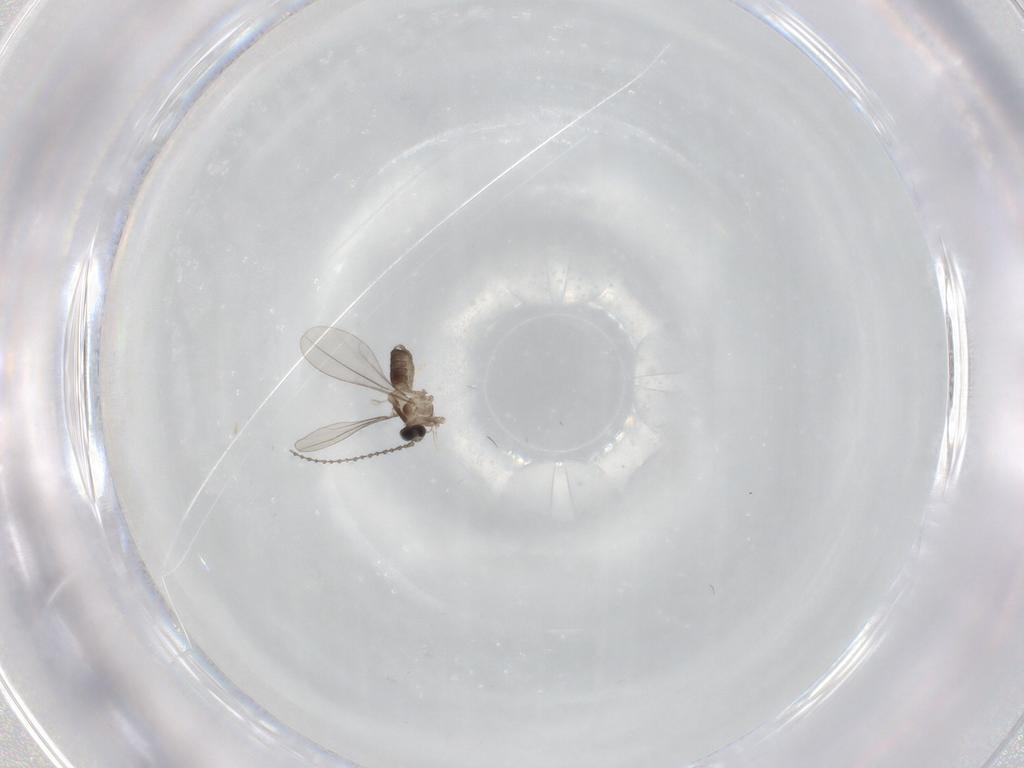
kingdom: Animalia
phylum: Arthropoda
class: Insecta
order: Diptera
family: Cecidomyiidae
